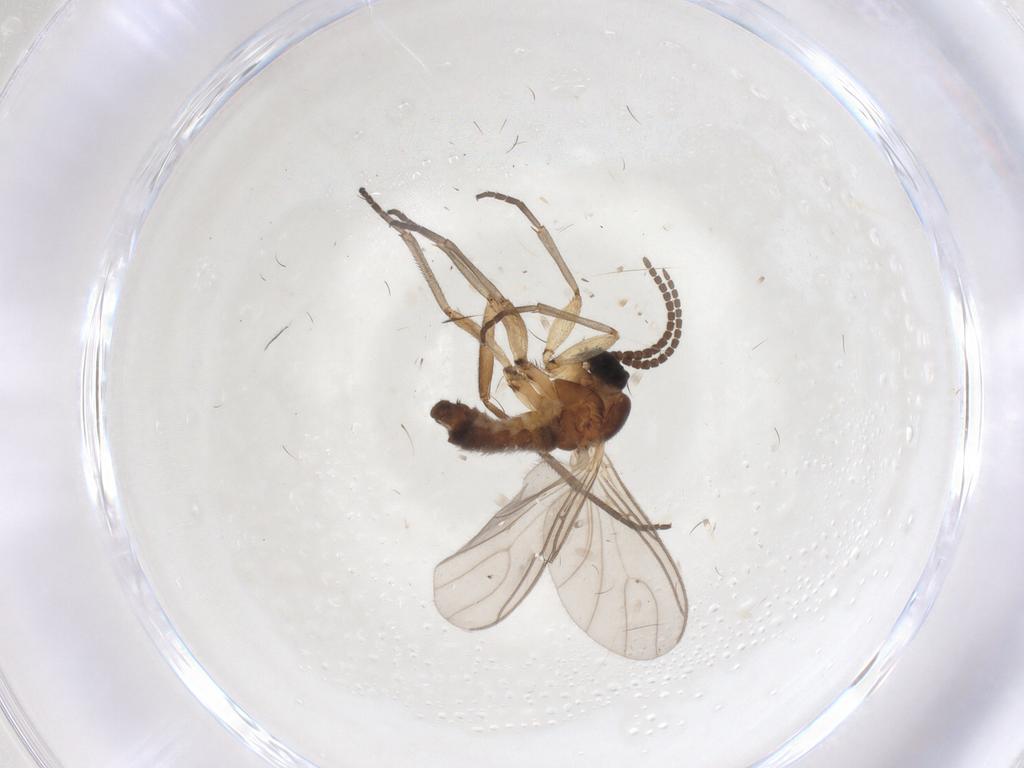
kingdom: Animalia
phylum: Arthropoda
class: Insecta
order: Diptera
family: Sciaridae
